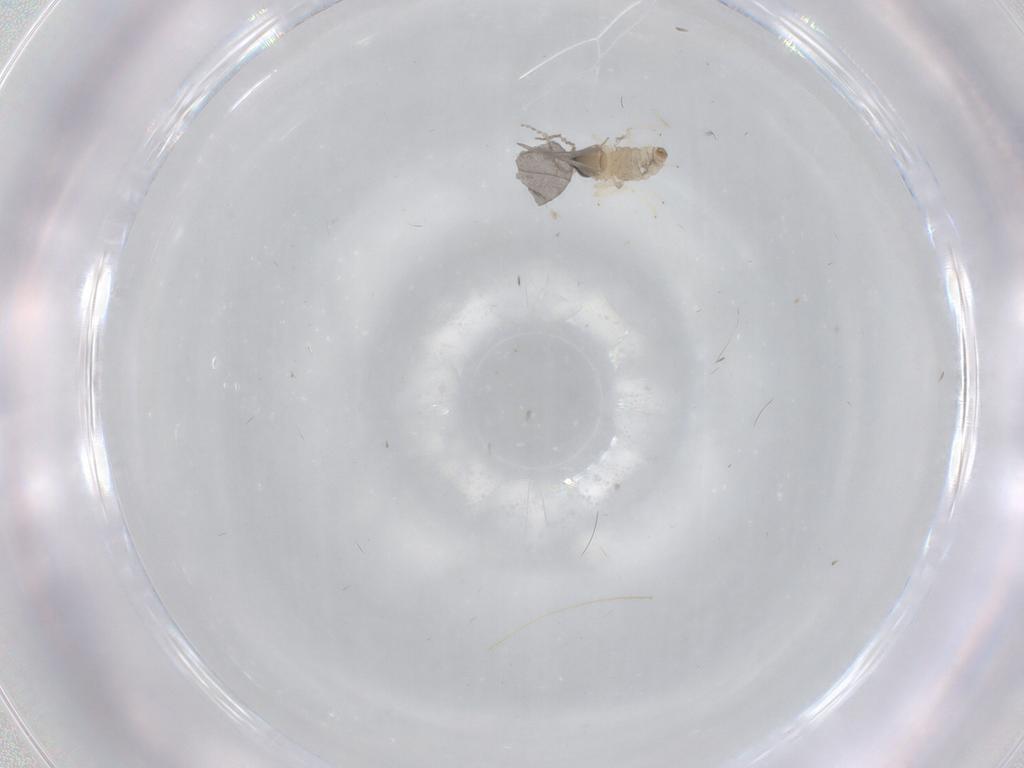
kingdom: Animalia
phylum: Arthropoda
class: Insecta
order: Diptera
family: Cecidomyiidae
